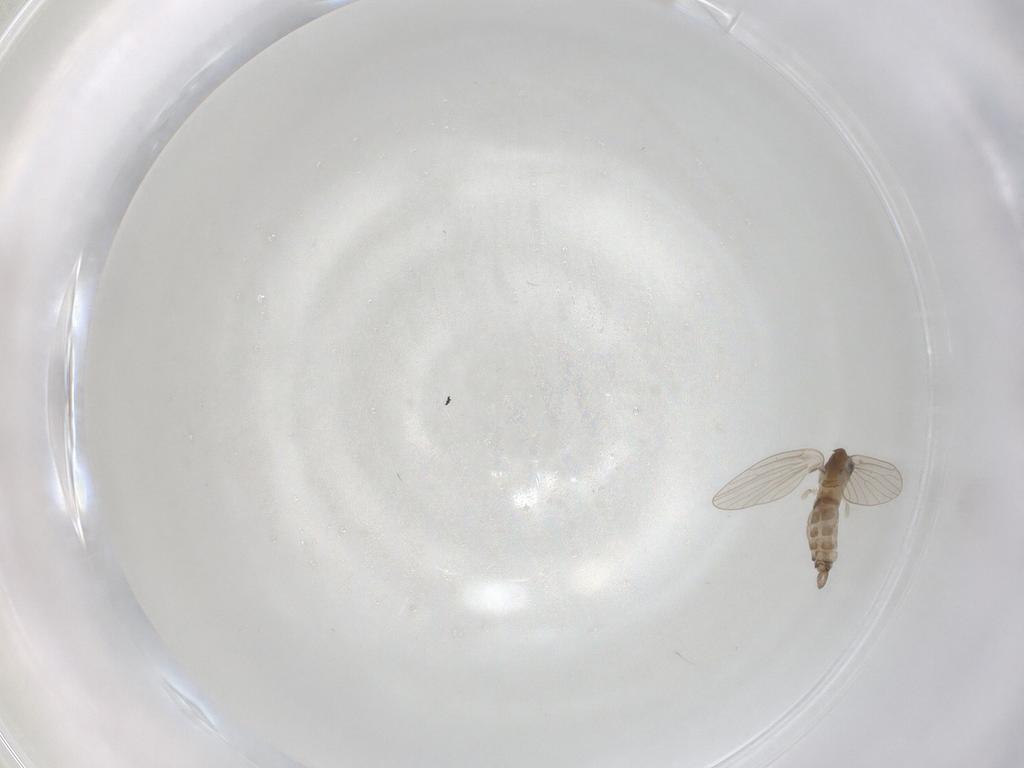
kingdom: Animalia
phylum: Arthropoda
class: Insecta
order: Diptera
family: Cecidomyiidae
